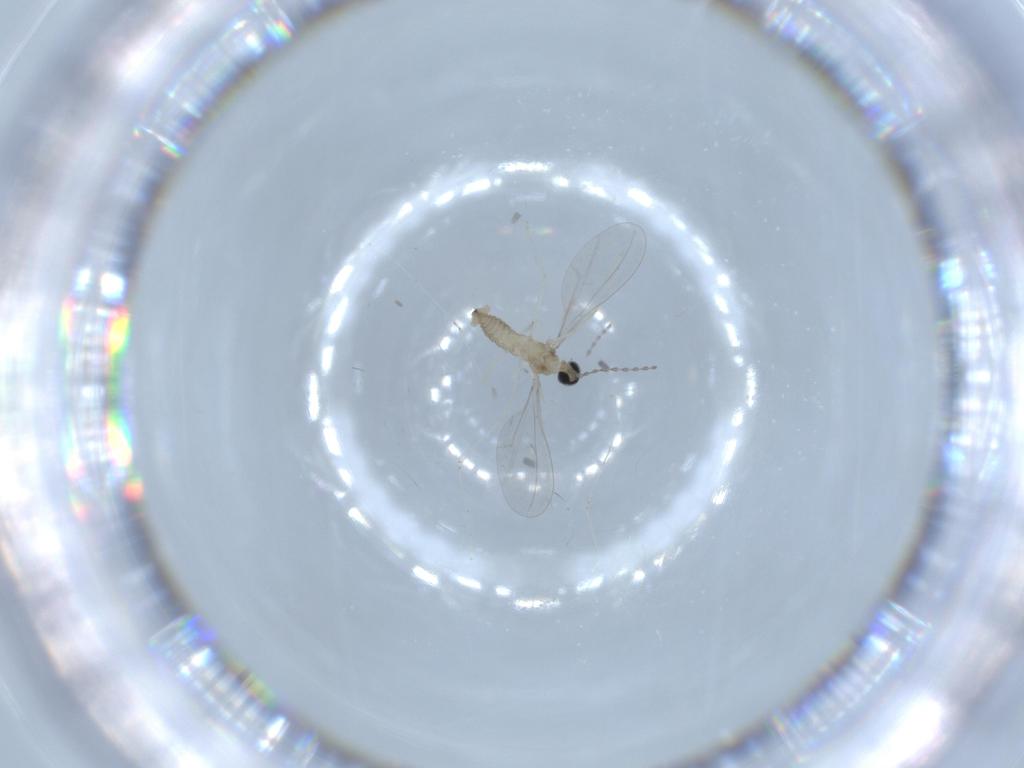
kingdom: Animalia
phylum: Arthropoda
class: Insecta
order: Diptera
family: Cecidomyiidae
